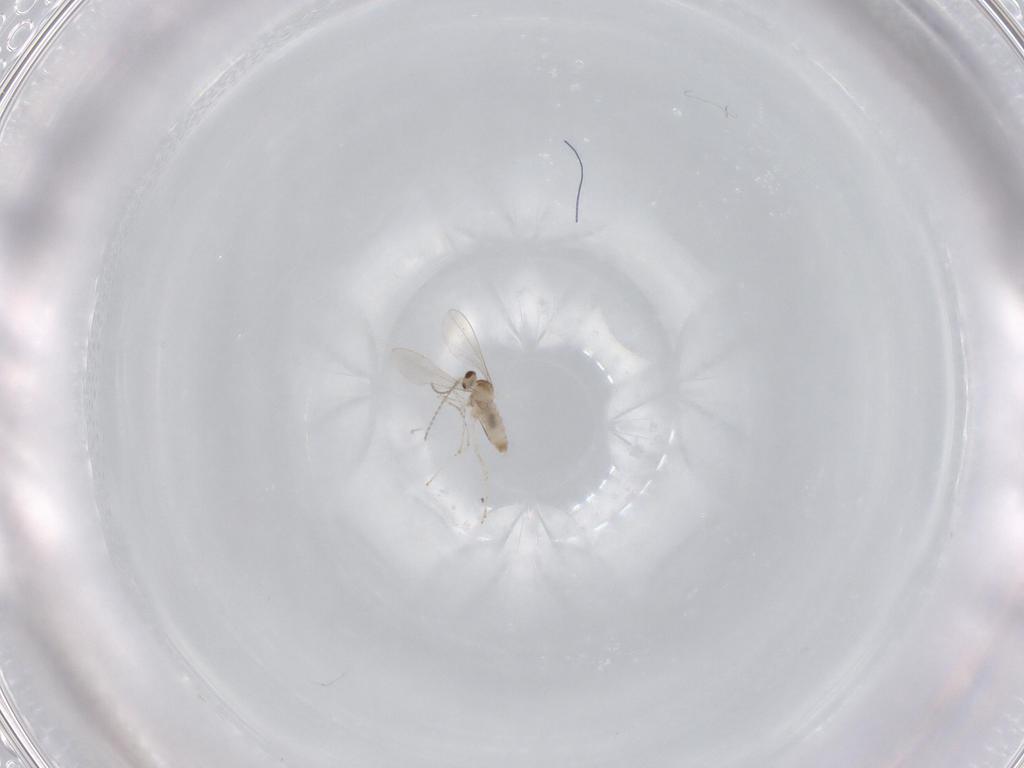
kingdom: Animalia
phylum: Arthropoda
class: Insecta
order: Diptera
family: Cecidomyiidae
